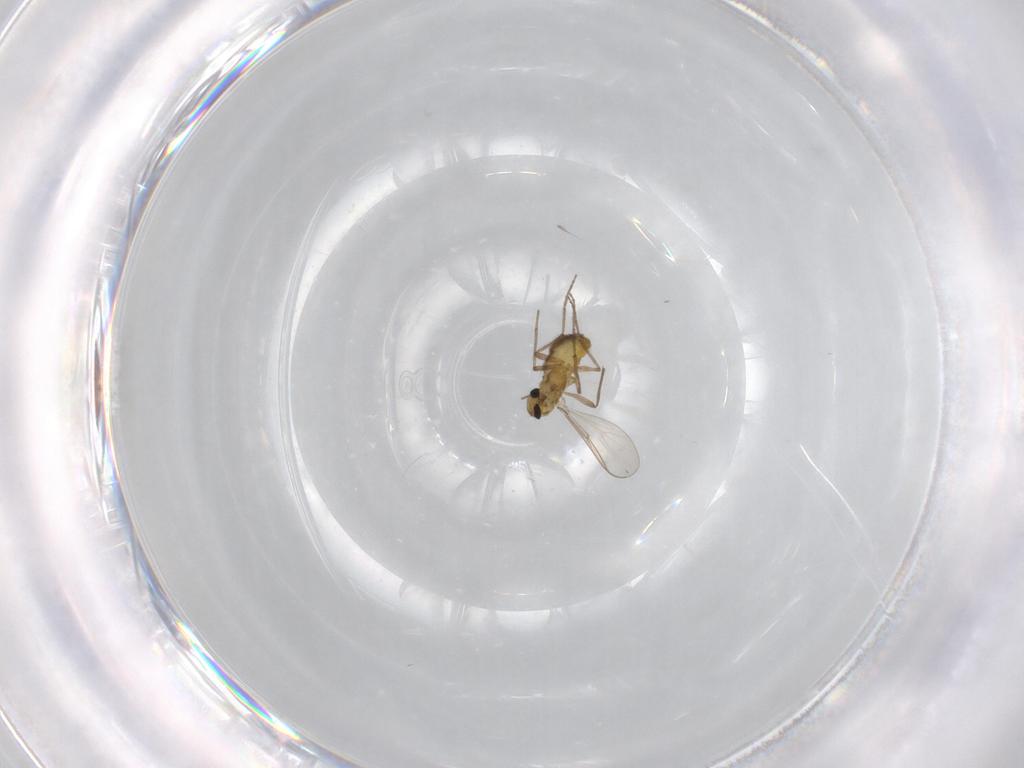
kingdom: Animalia
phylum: Arthropoda
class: Insecta
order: Diptera
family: Chironomidae
